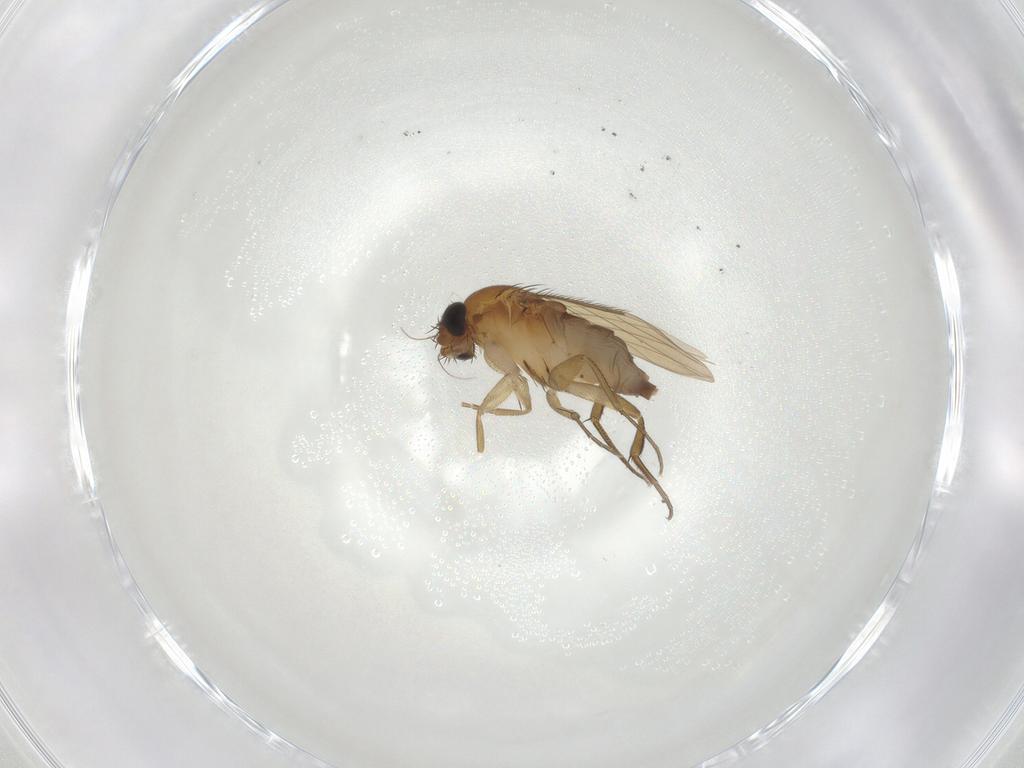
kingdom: Animalia
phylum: Arthropoda
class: Insecta
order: Diptera
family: Phoridae
